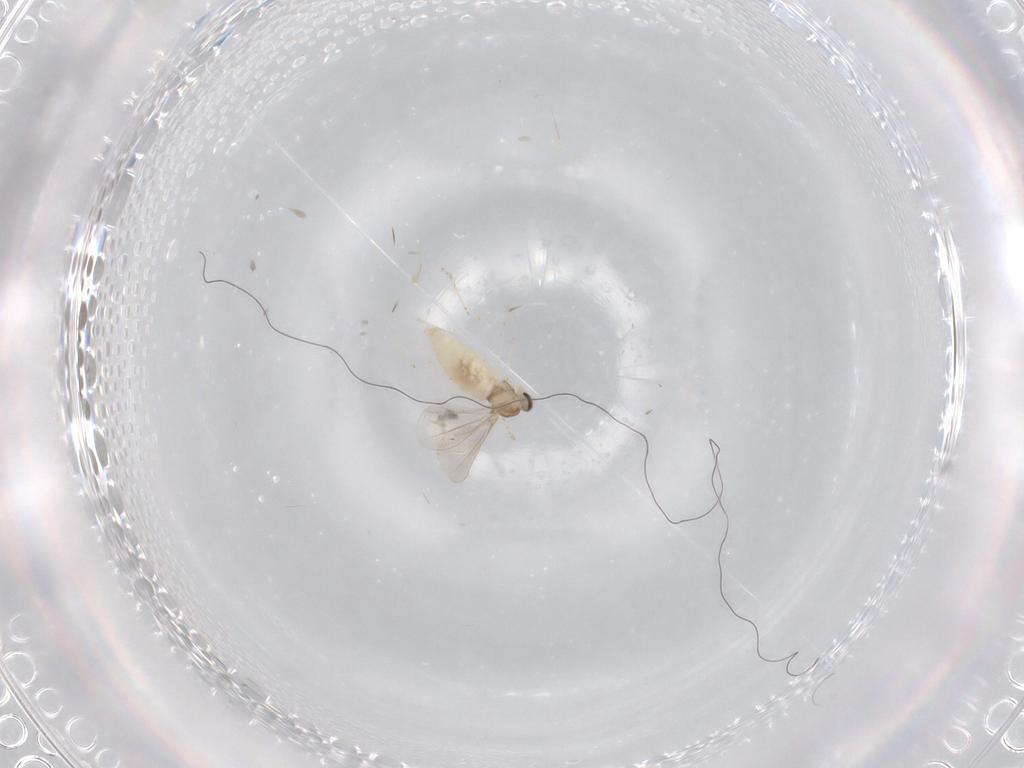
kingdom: Animalia
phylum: Arthropoda
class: Insecta
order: Diptera
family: Cecidomyiidae
